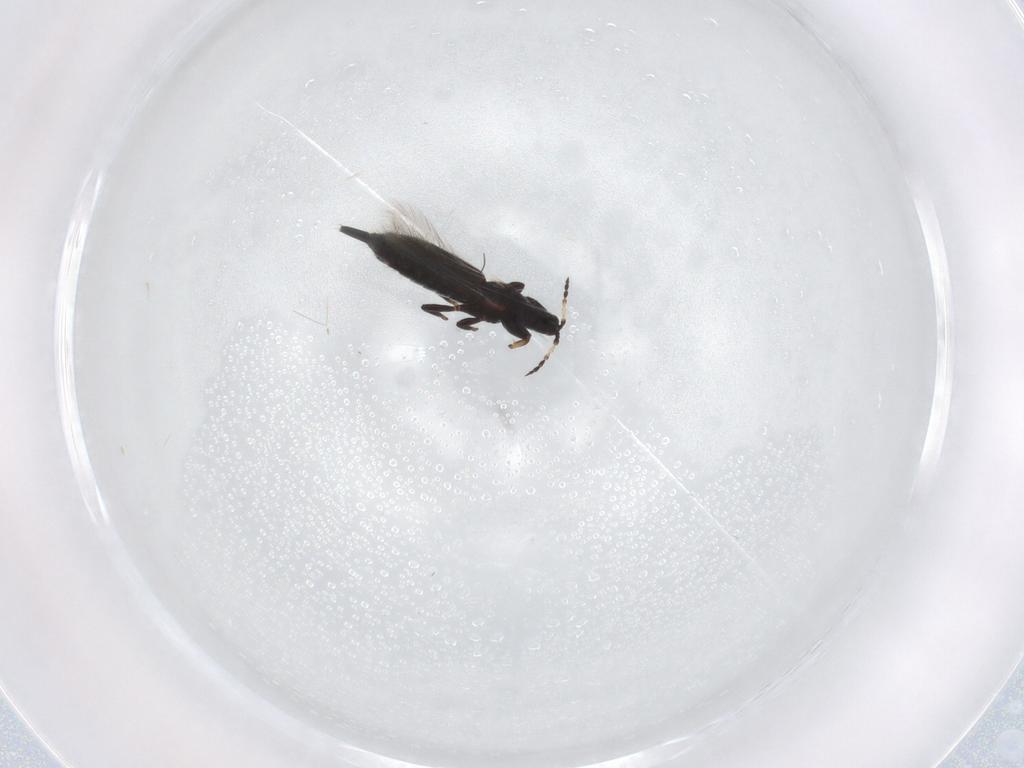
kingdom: Animalia
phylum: Arthropoda
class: Insecta
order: Thysanoptera
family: Phlaeothripidae
